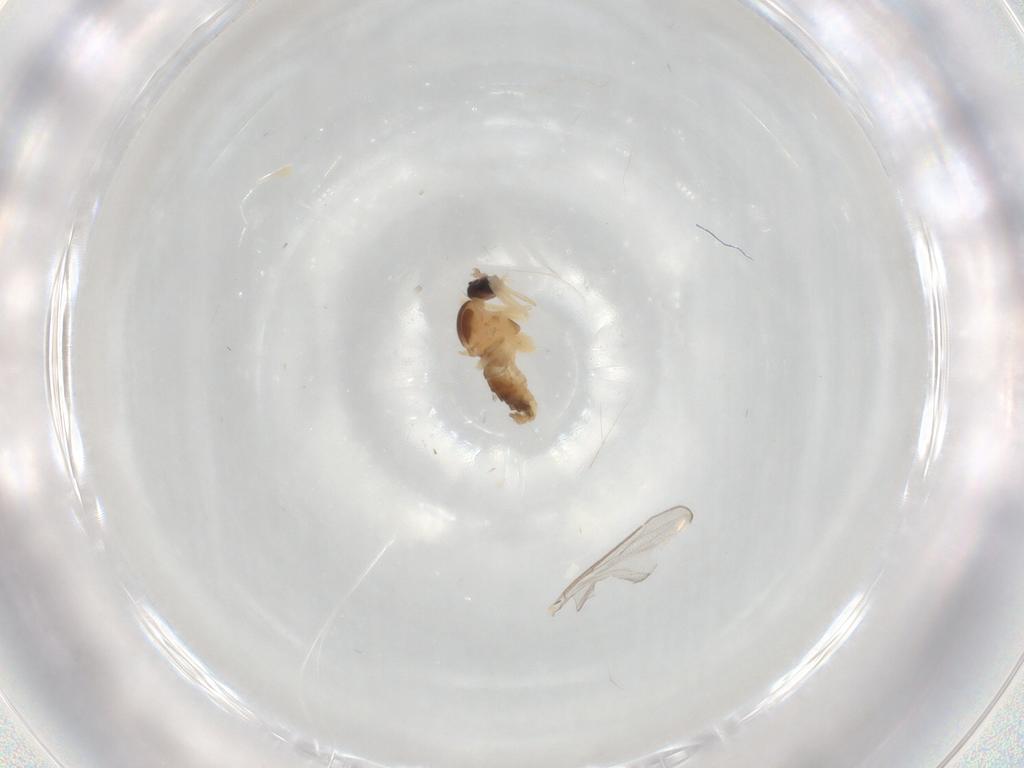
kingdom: Animalia
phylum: Arthropoda
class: Insecta
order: Diptera
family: Cecidomyiidae
